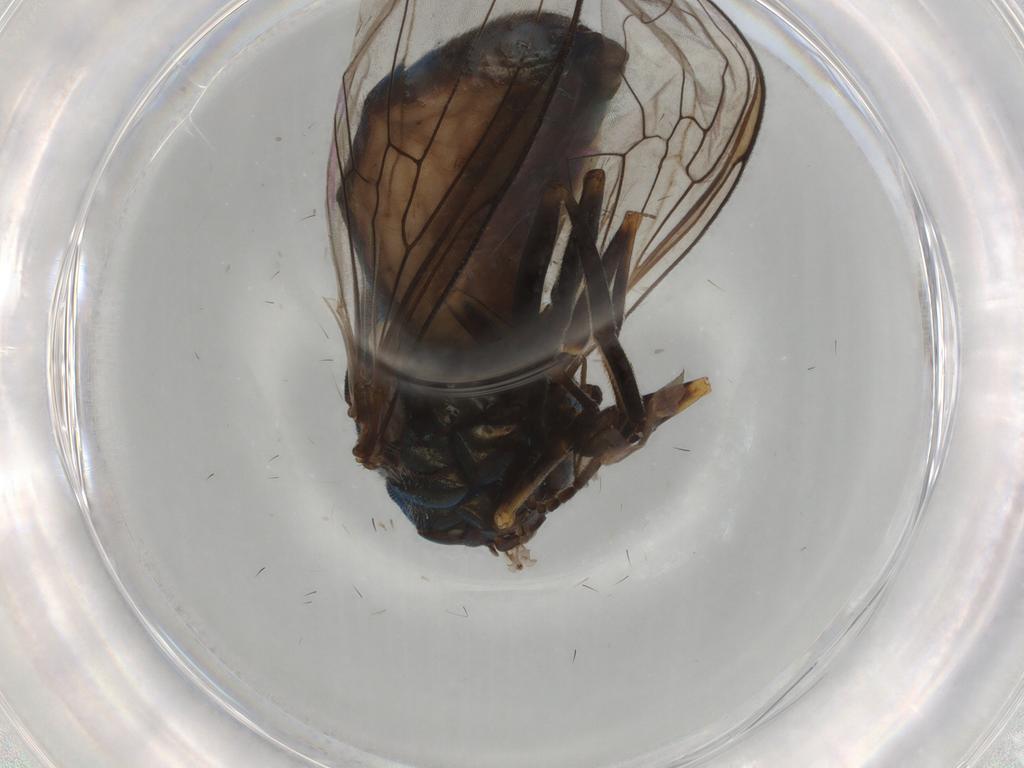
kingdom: Animalia
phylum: Arthropoda
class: Insecta
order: Diptera
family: Syrphidae
